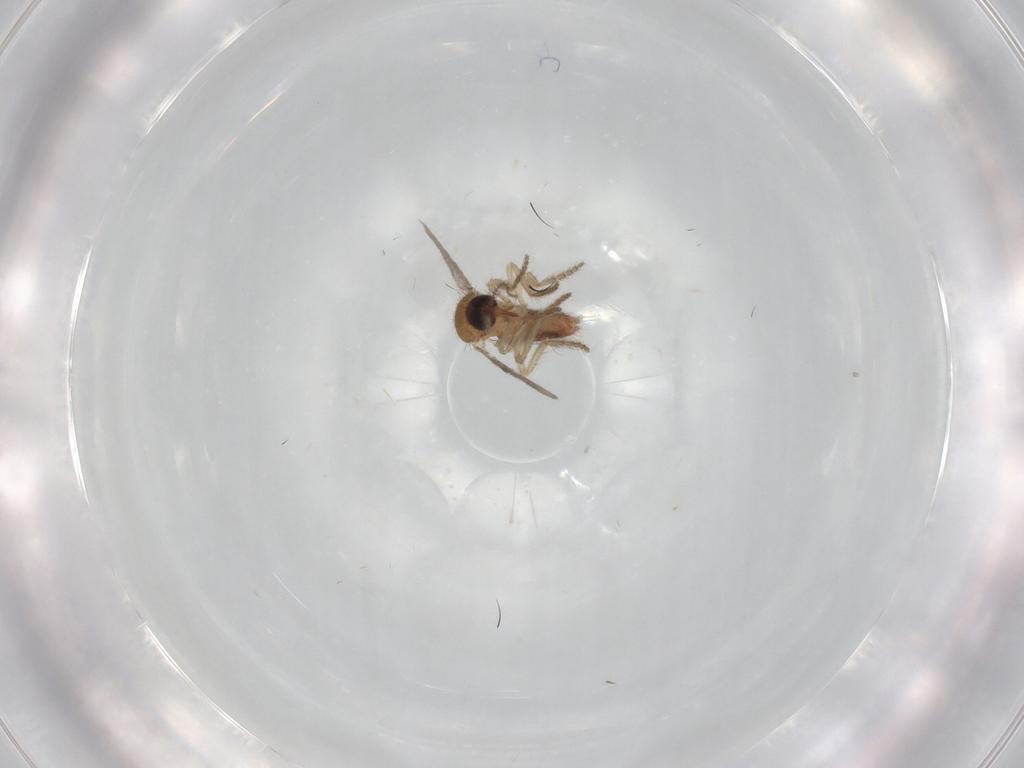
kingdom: Animalia
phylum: Arthropoda
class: Insecta
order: Diptera
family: Ceratopogonidae
